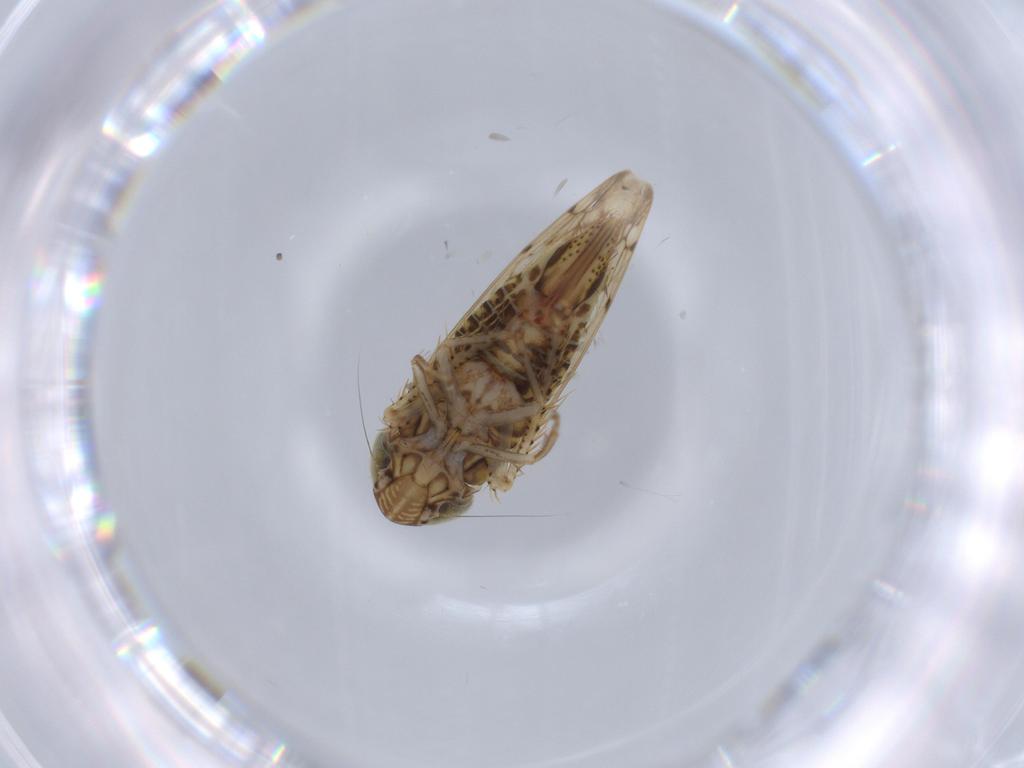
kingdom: Animalia
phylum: Arthropoda
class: Insecta
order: Hemiptera
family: Cicadellidae
